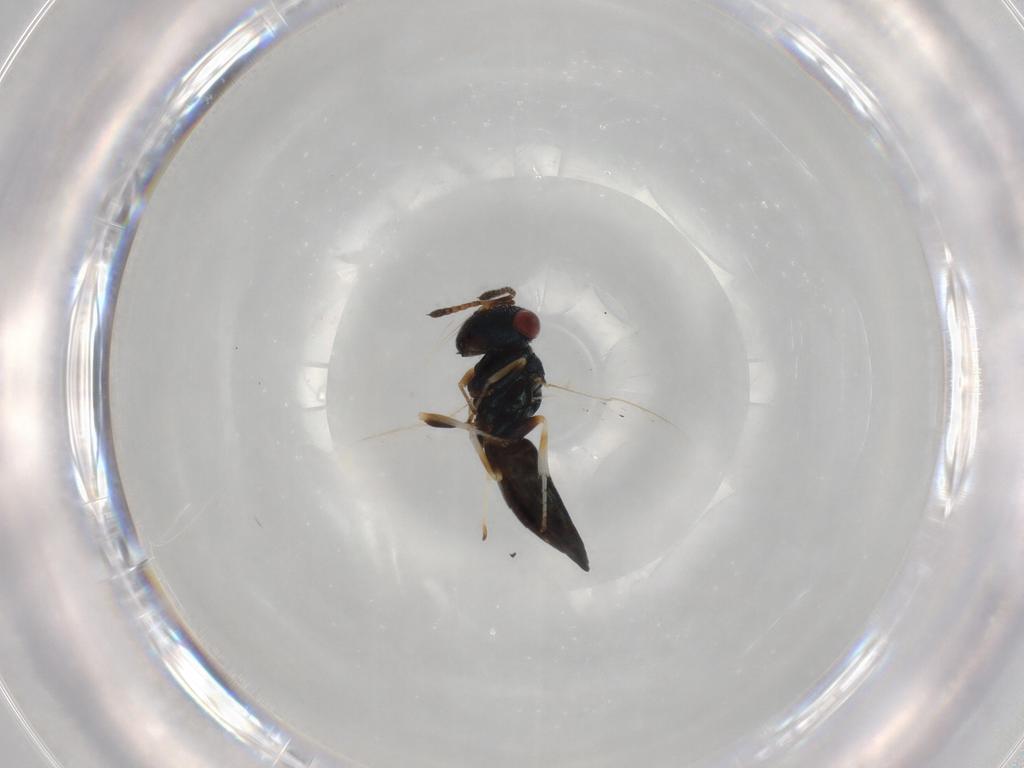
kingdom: Animalia
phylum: Arthropoda
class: Insecta
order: Hymenoptera
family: Pteromalidae
